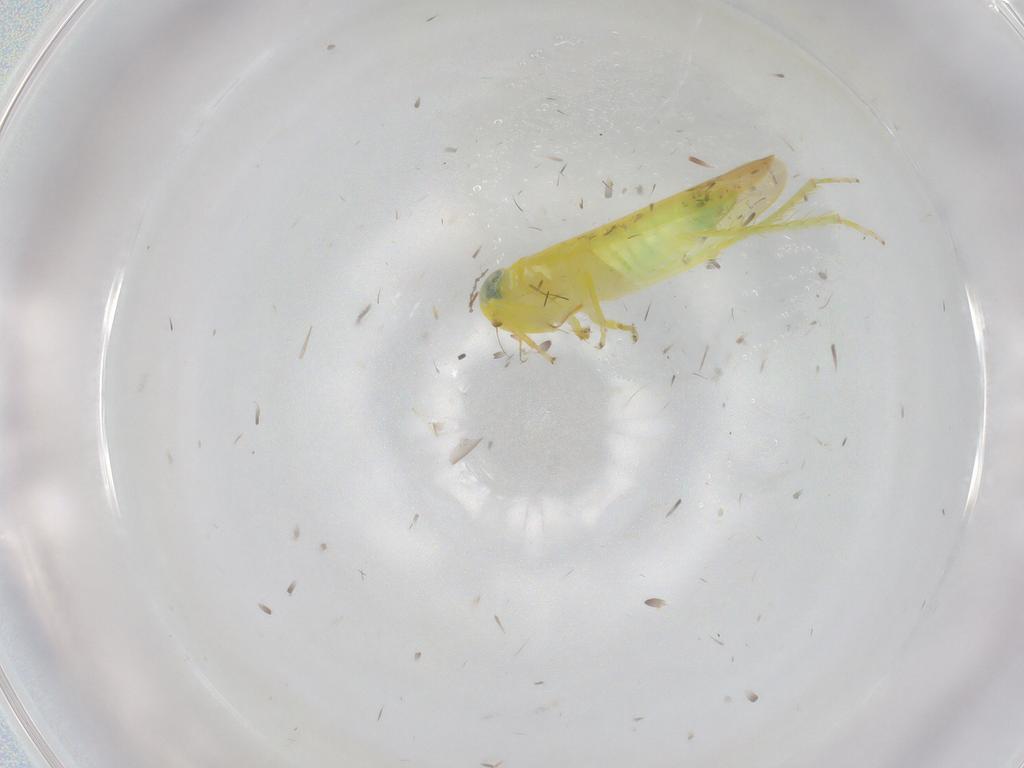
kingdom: Animalia
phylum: Arthropoda
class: Insecta
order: Hemiptera
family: Cicadellidae
